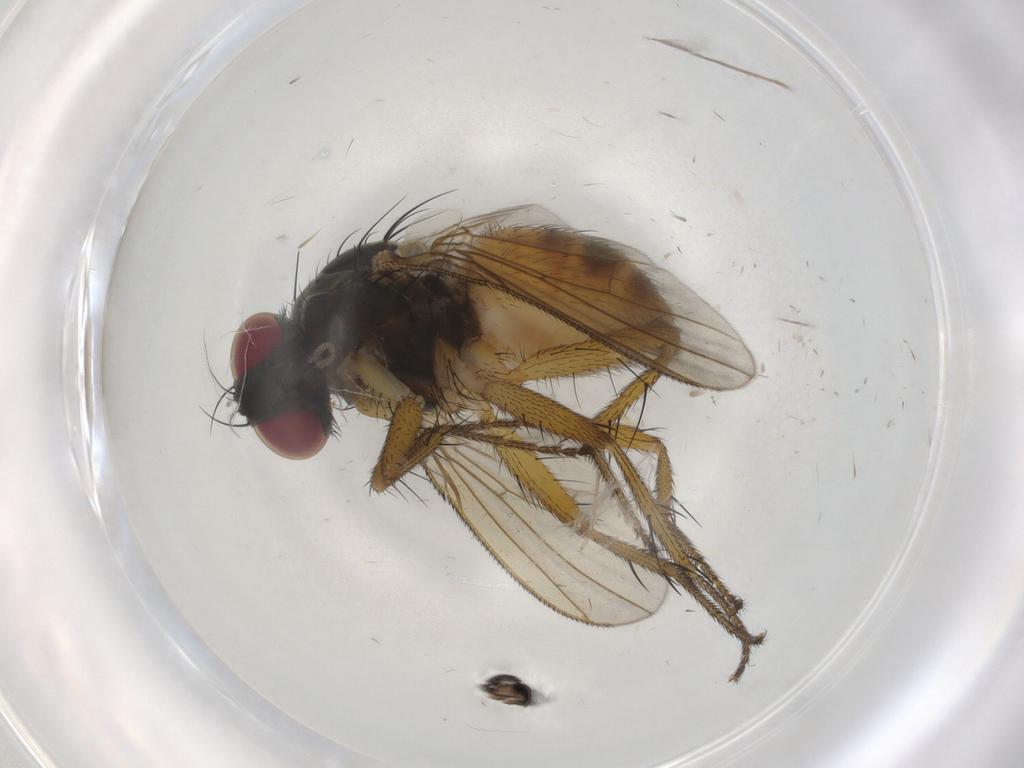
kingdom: Animalia
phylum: Arthropoda
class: Insecta
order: Diptera
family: Muscidae
